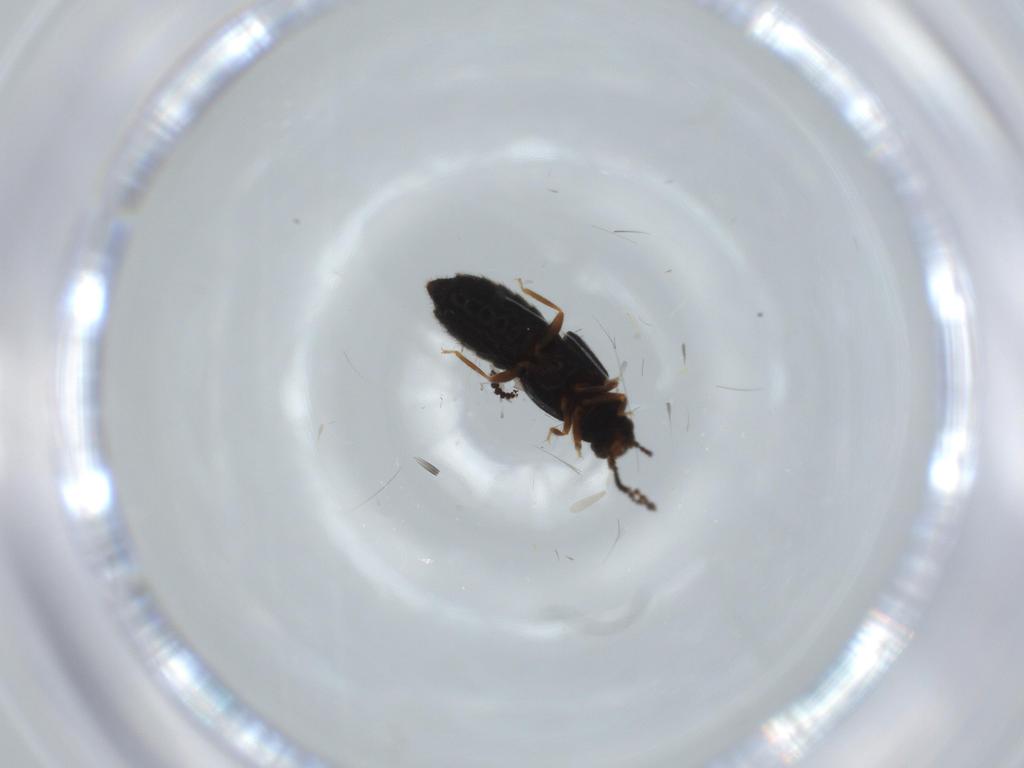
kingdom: Animalia
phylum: Arthropoda
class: Insecta
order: Coleoptera
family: Staphylinidae
